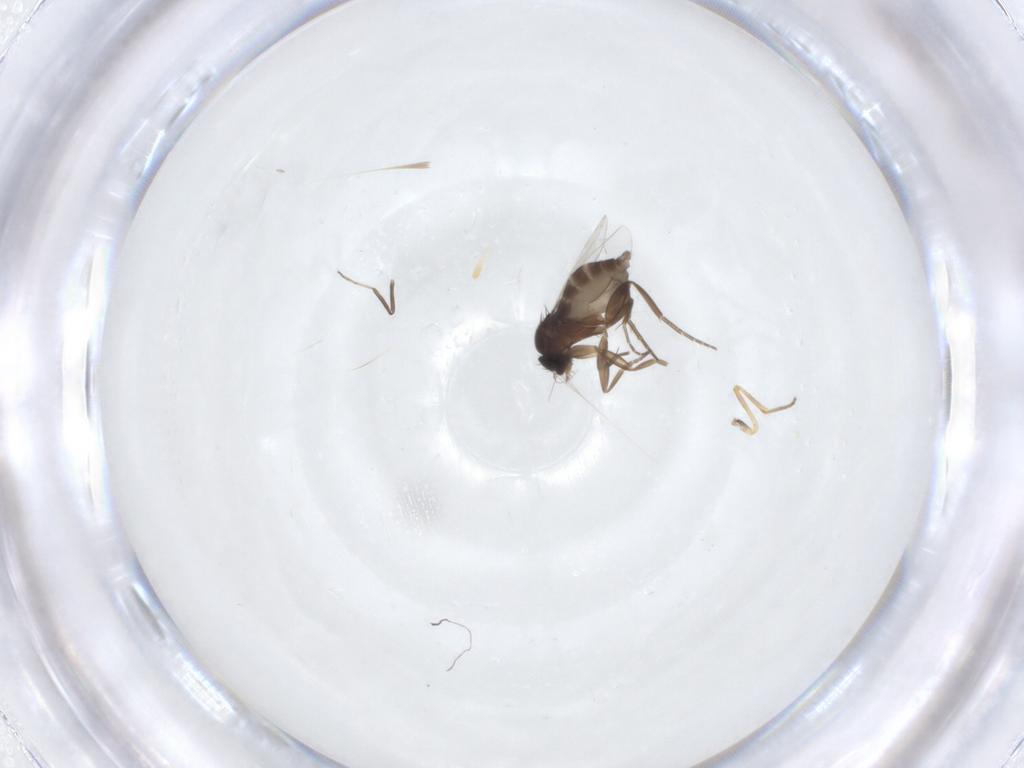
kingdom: Animalia
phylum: Arthropoda
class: Insecta
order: Diptera
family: Ceratopogonidae
